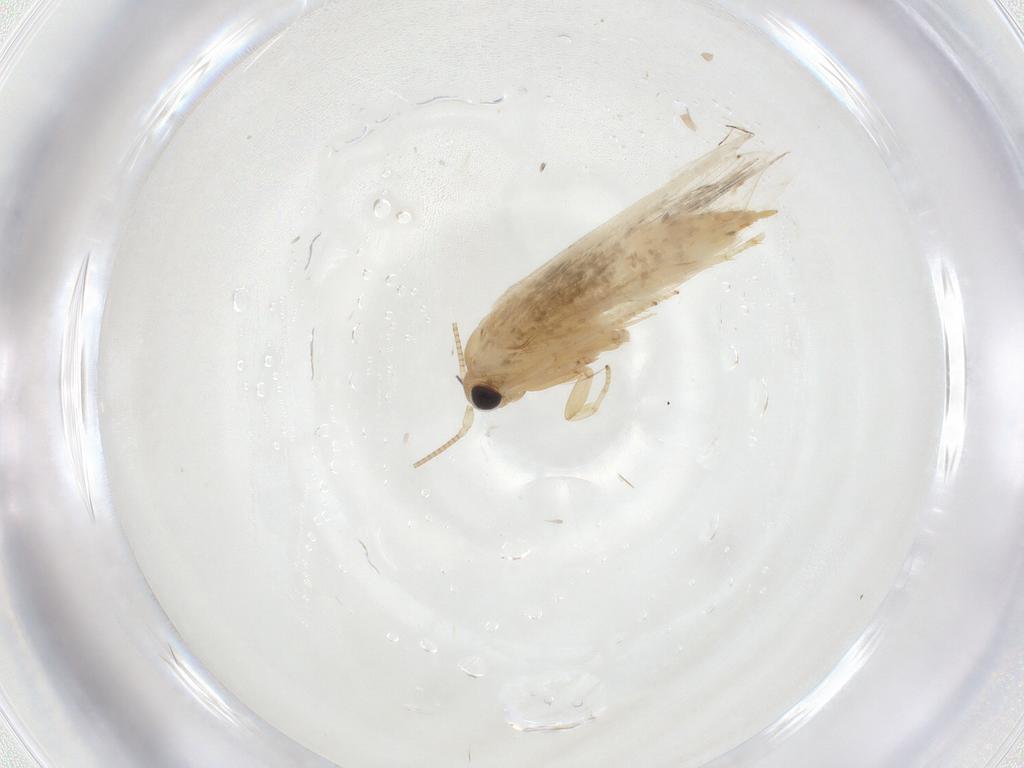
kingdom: Animalia
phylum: Arthropoda
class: Insecta
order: Lepidoptera
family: Tineidae
